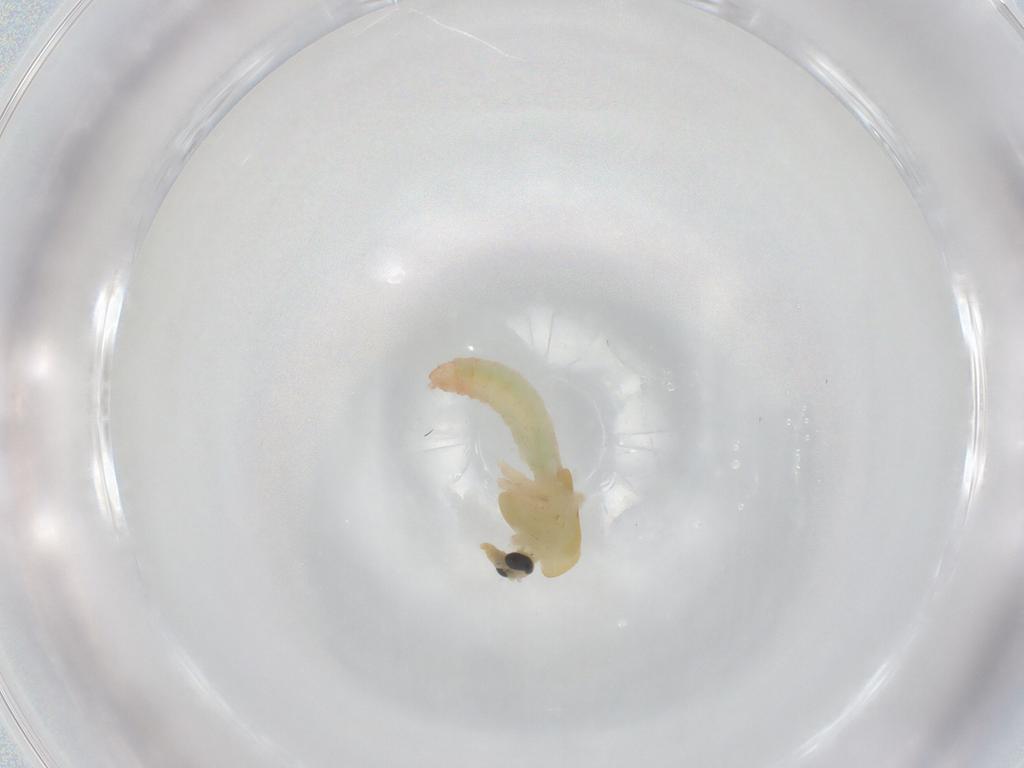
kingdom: Animalia
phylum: Arthropoda
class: Insecta
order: Diptera
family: Chironomidae
